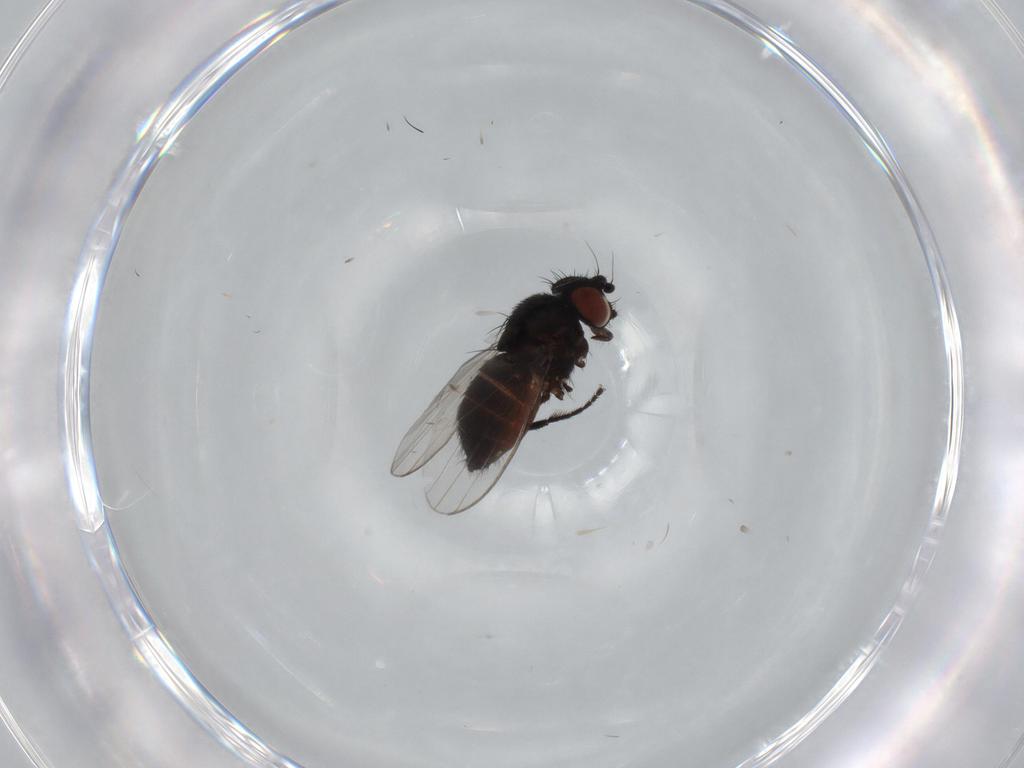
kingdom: Animalia
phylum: Arthropoda
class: Insecta
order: Diptera
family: Milichiidae
